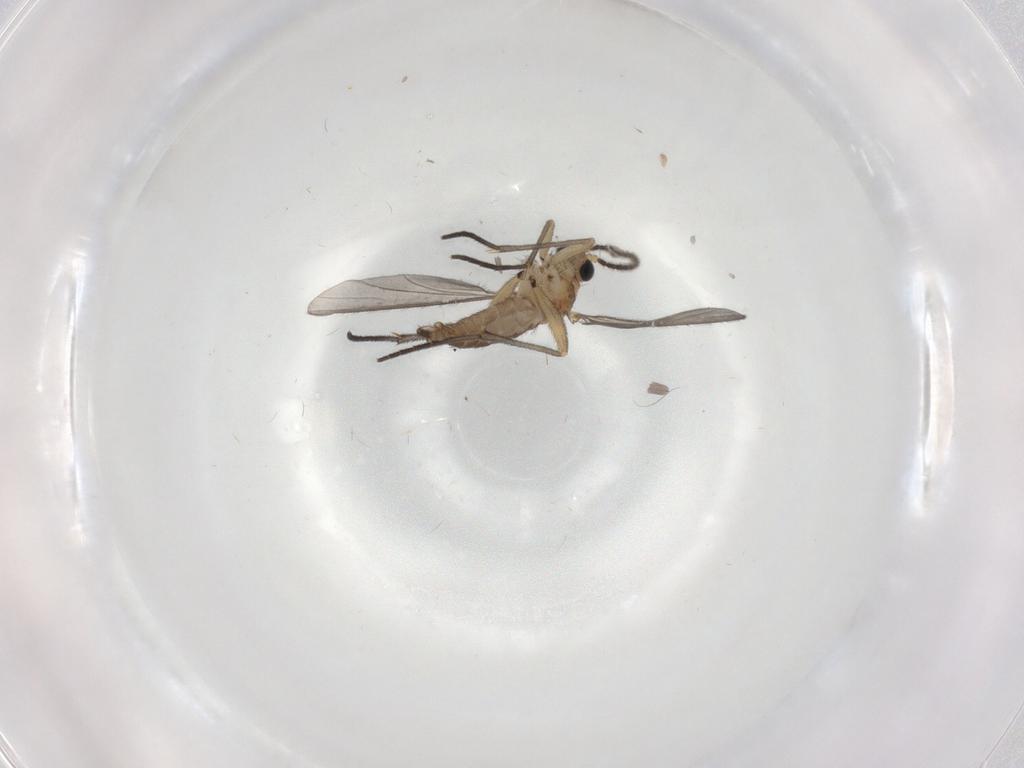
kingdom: Animalia
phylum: Arthropoda
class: Insecta
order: Diptera
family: Sciaridae
